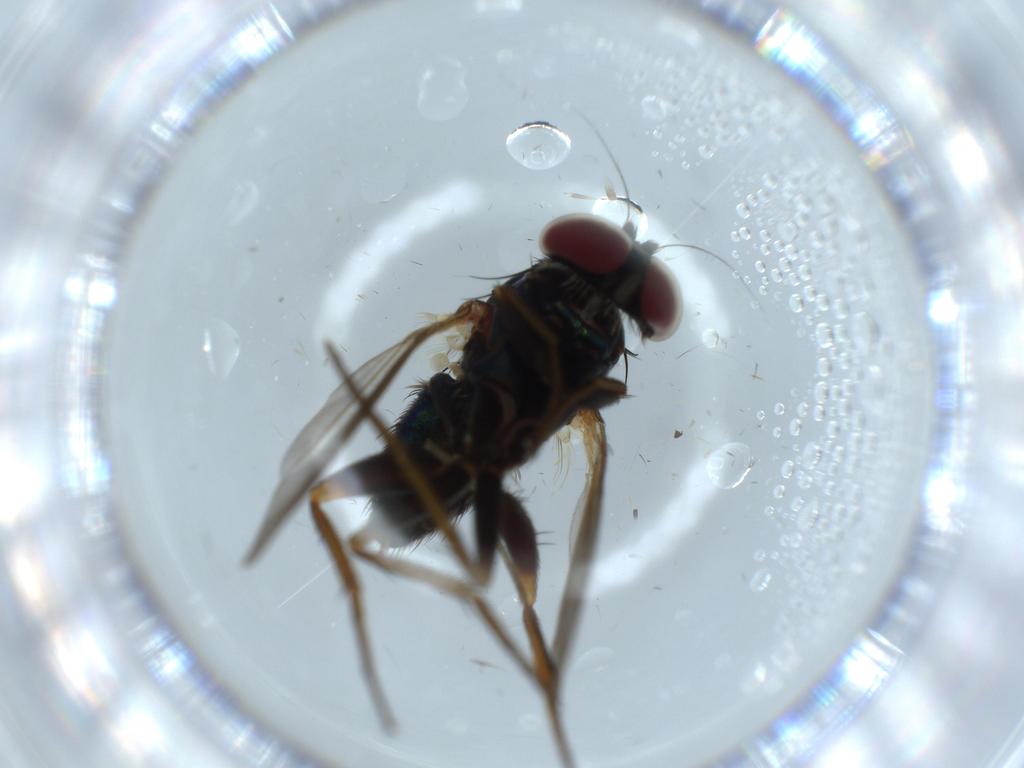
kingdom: Animalia
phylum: Arthropoda
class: Insecta
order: Diptera
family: Dolichopodidae
